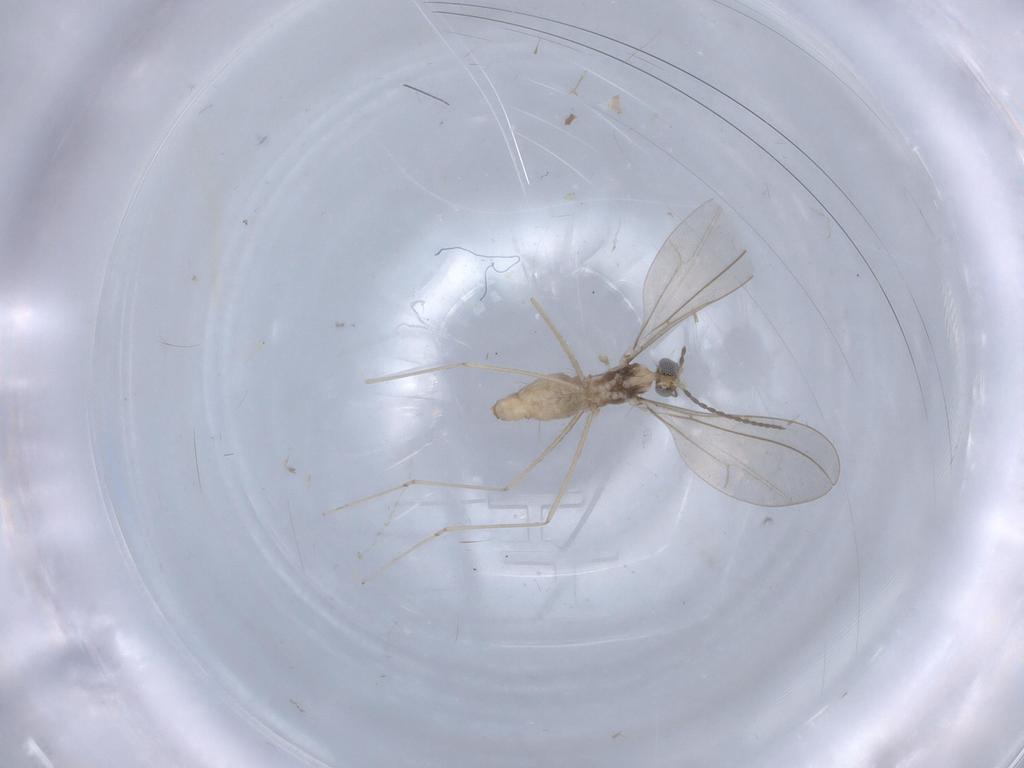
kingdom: Animalia
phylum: Arthropoda
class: Insecta
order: Diptera
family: Cecidomyiidae
